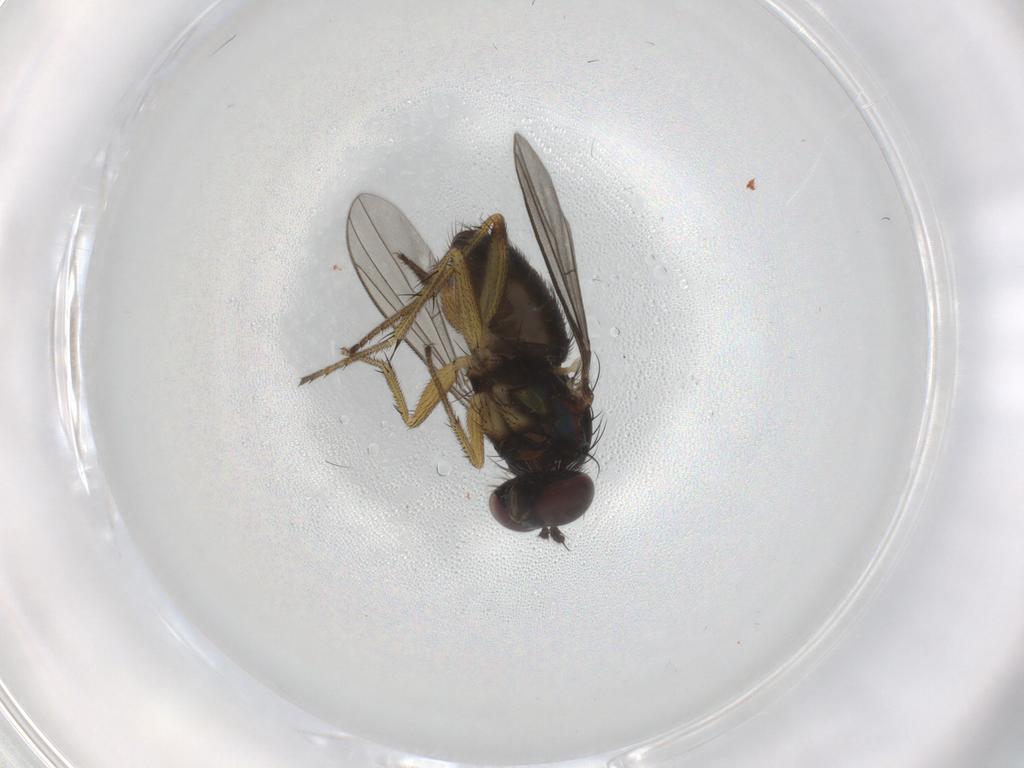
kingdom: Animalia
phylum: Arthropoda
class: Insecta
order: Diptera
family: Dolichopodidae
